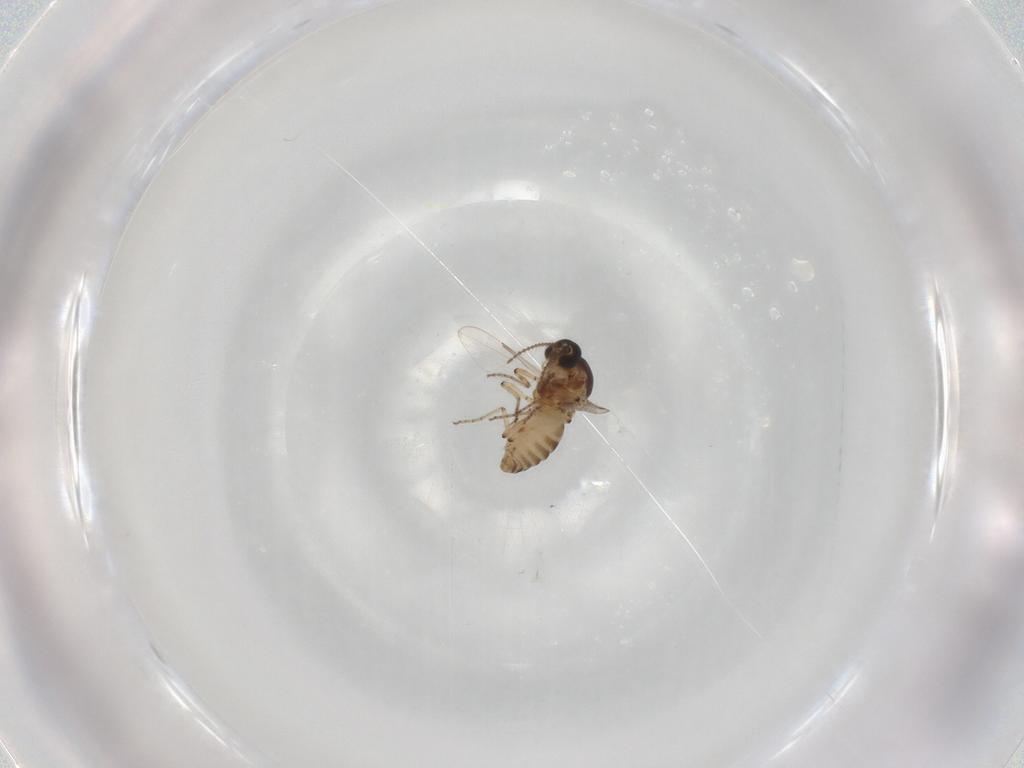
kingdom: Animalia
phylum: Arthropoda
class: Insecta
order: Diptera
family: Ceratopogonidae
